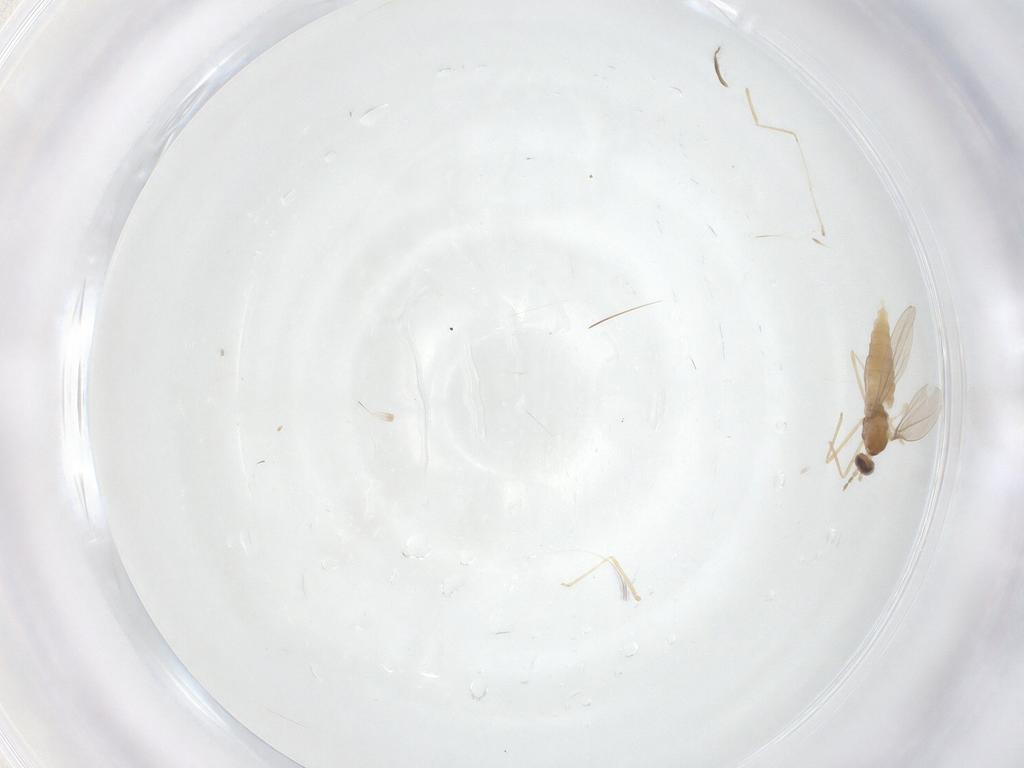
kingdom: Animalia
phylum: Arthropoda
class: Insecta
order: Diptera
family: Cecidomyiidae
